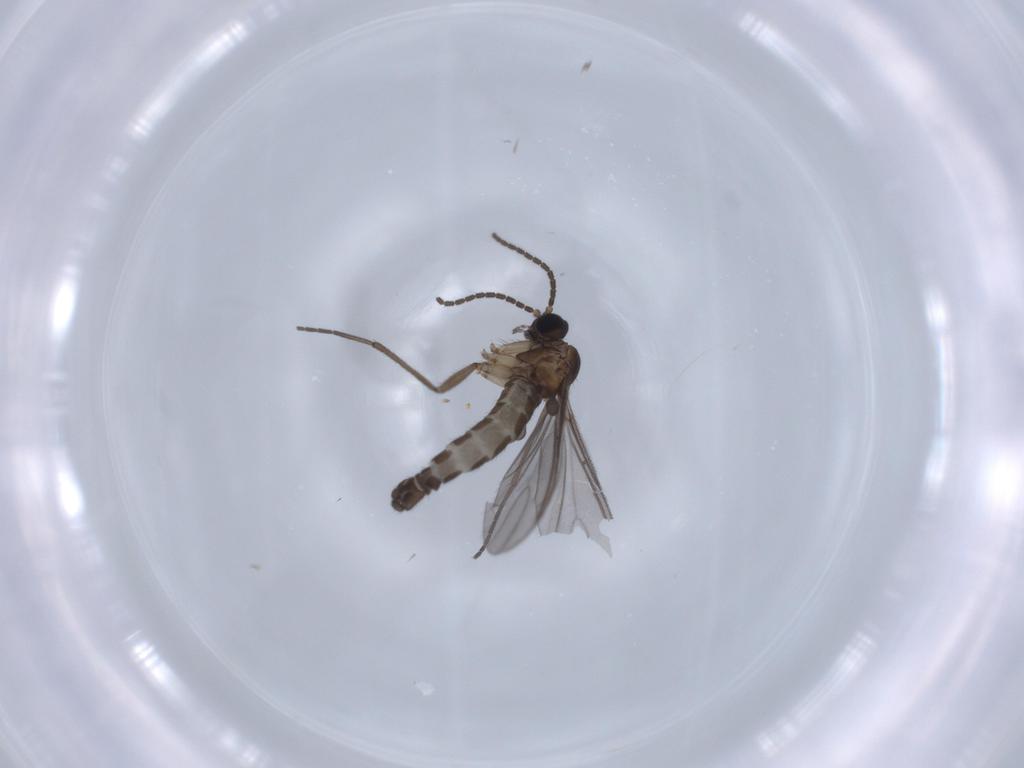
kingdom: Animalia
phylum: Arthropoda
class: Insecta
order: Diptera
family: Sciaridae
